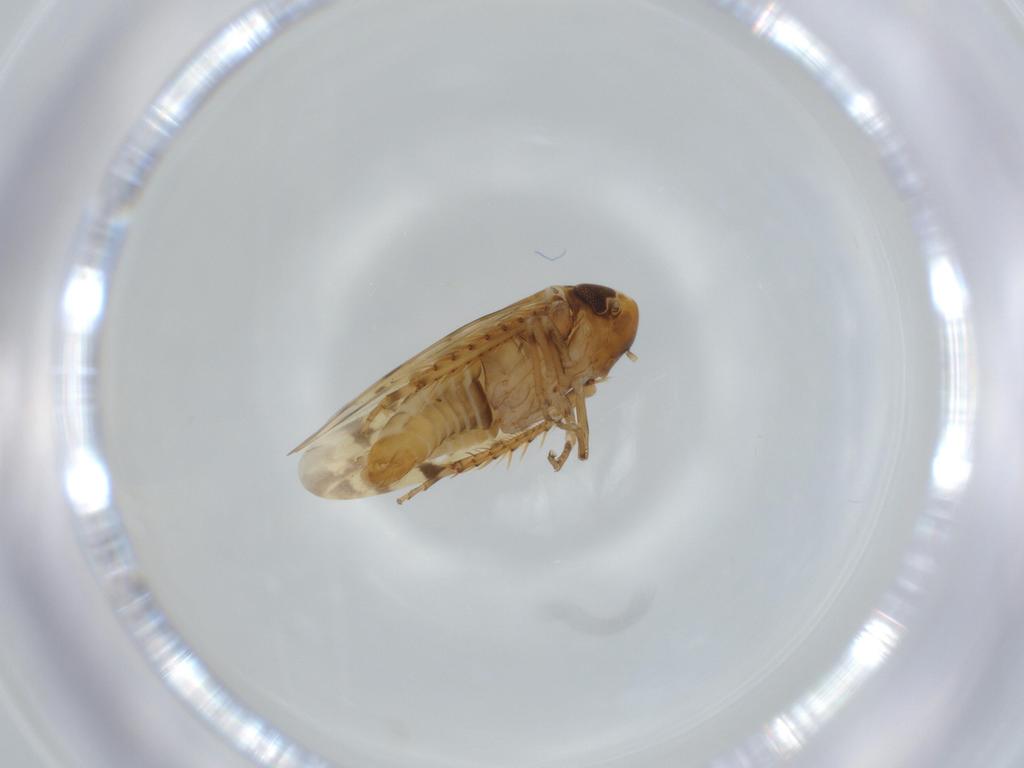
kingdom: Animalia
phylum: Arthropoda
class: Insecta
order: Hemiptera
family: Cicadellidae
